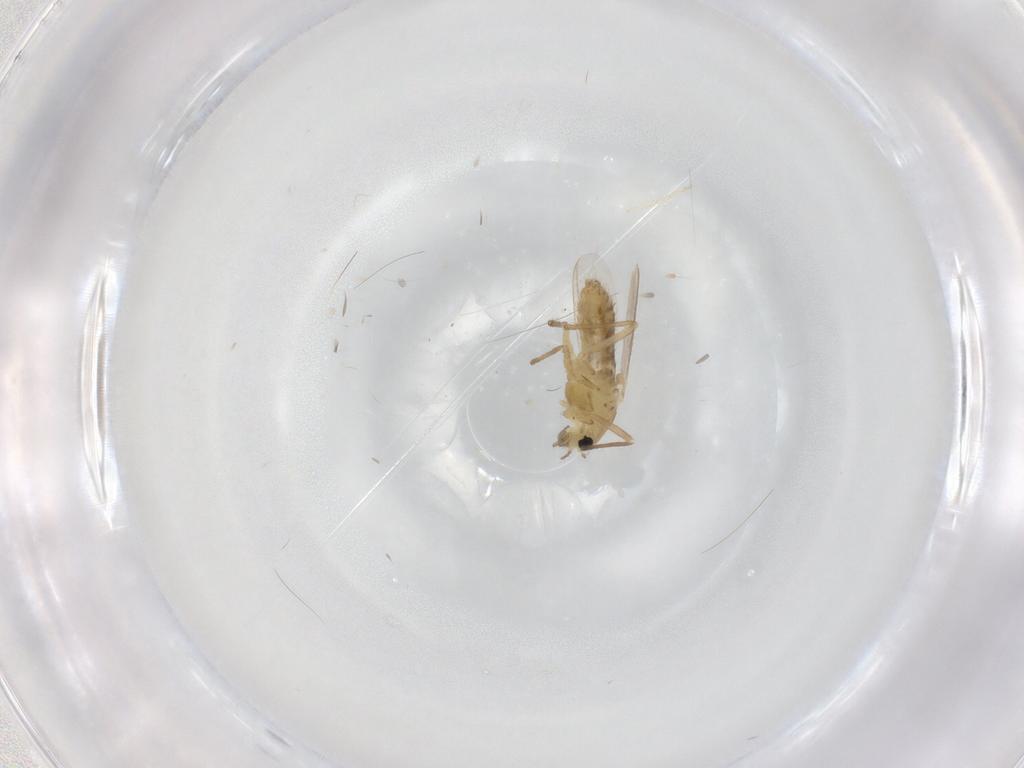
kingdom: Animalia
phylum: Arthropoda
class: Insecta
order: Diptera
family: Chironomidae
